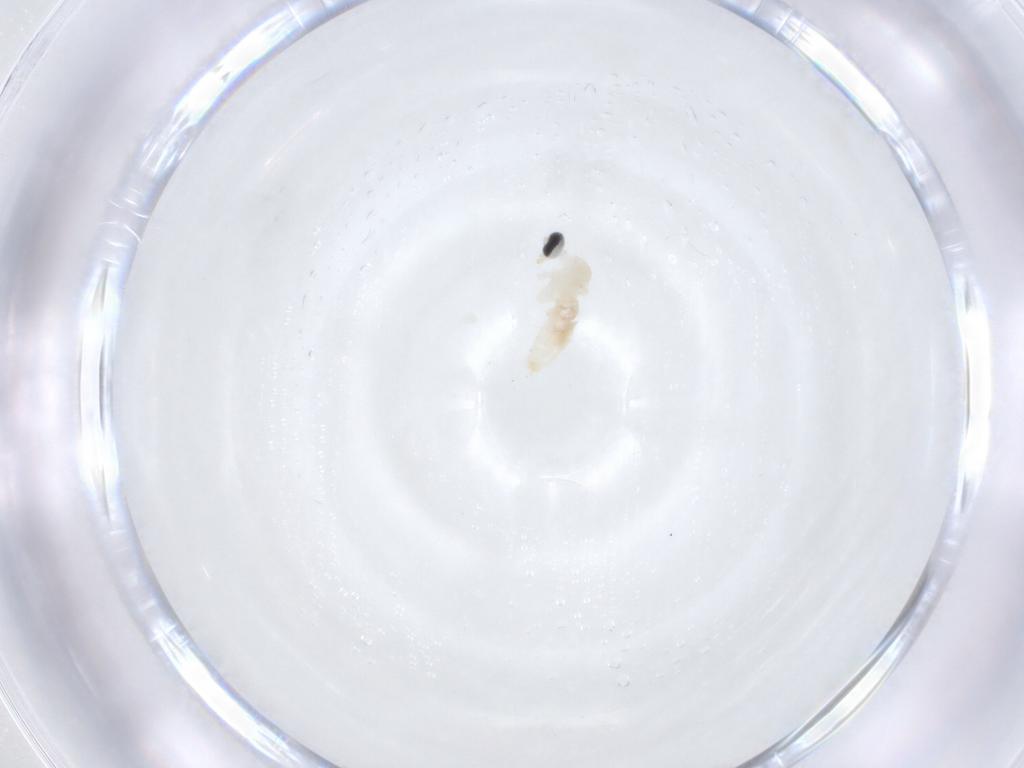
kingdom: Animalia
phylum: Arthropoda
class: Insecta
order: Diptera
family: Cecidomyiidae
